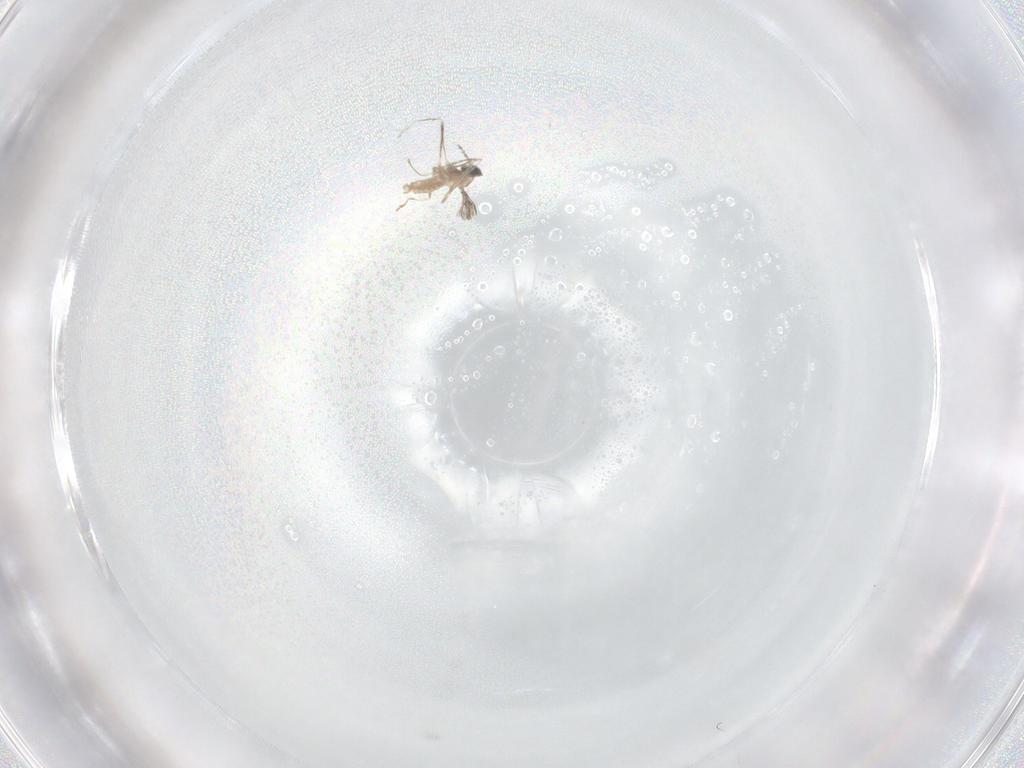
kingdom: Animalia
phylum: Arthropoda
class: Insecta
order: Diptera
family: Cecidomyiidae
